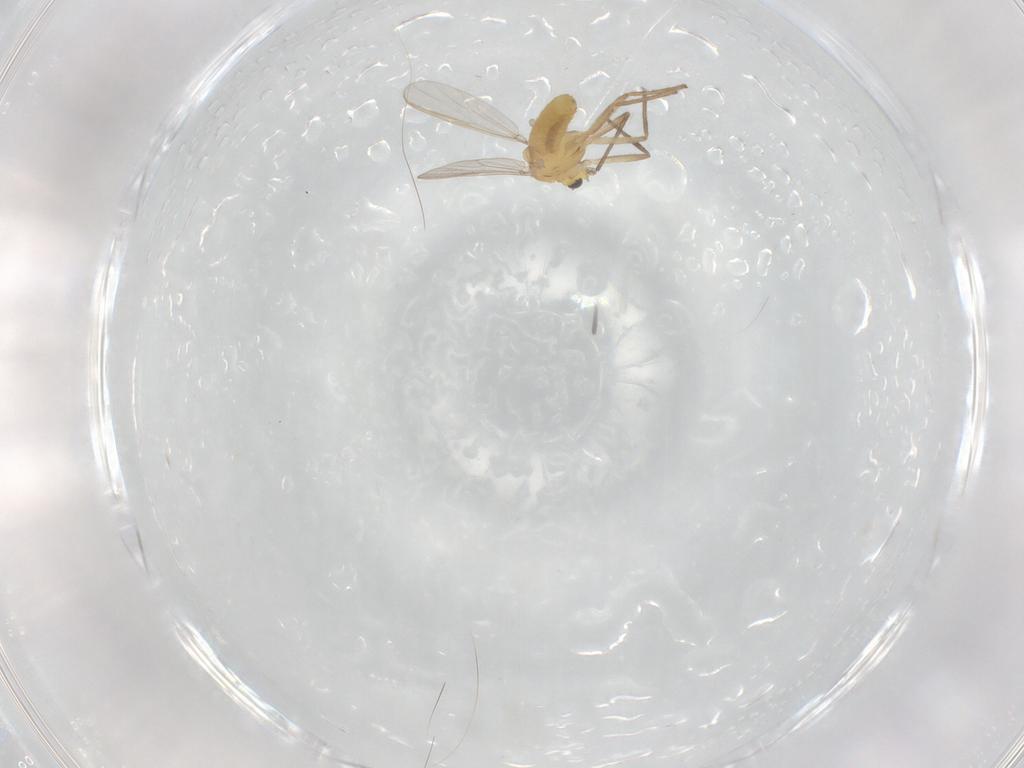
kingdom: Animalia
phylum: Arthropoda
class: Insecta
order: Diptera
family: Chironomidae
